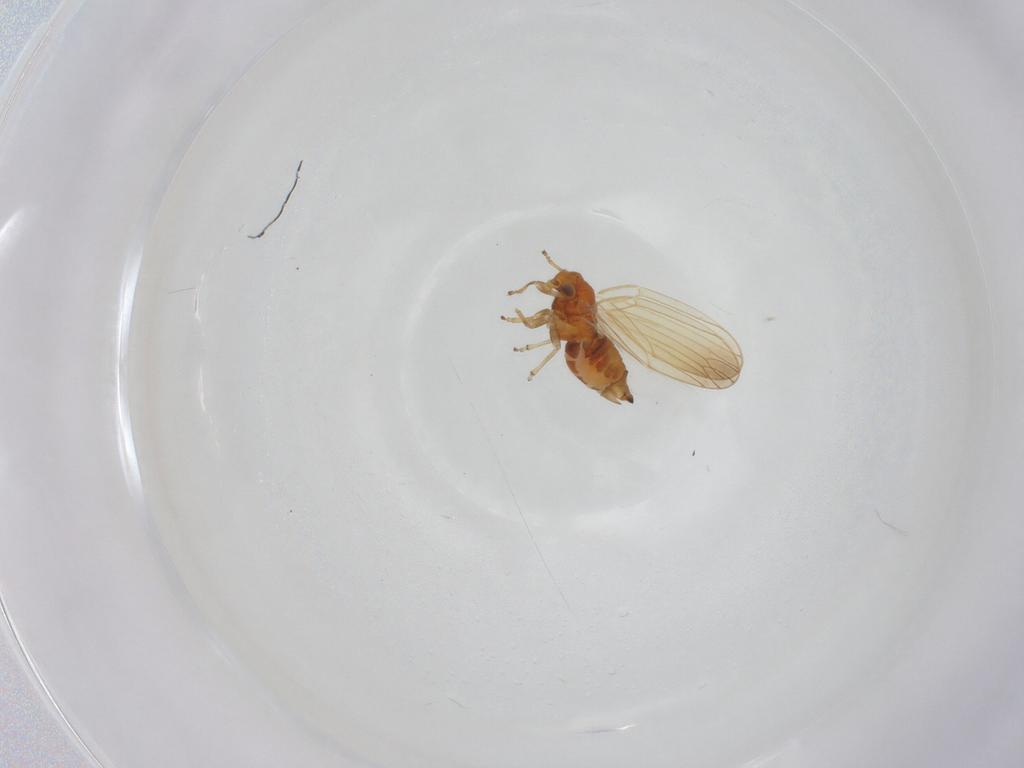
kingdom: Animalia
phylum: Arthropoda
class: Insecta
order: Hemiptera
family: Aphalaridae
